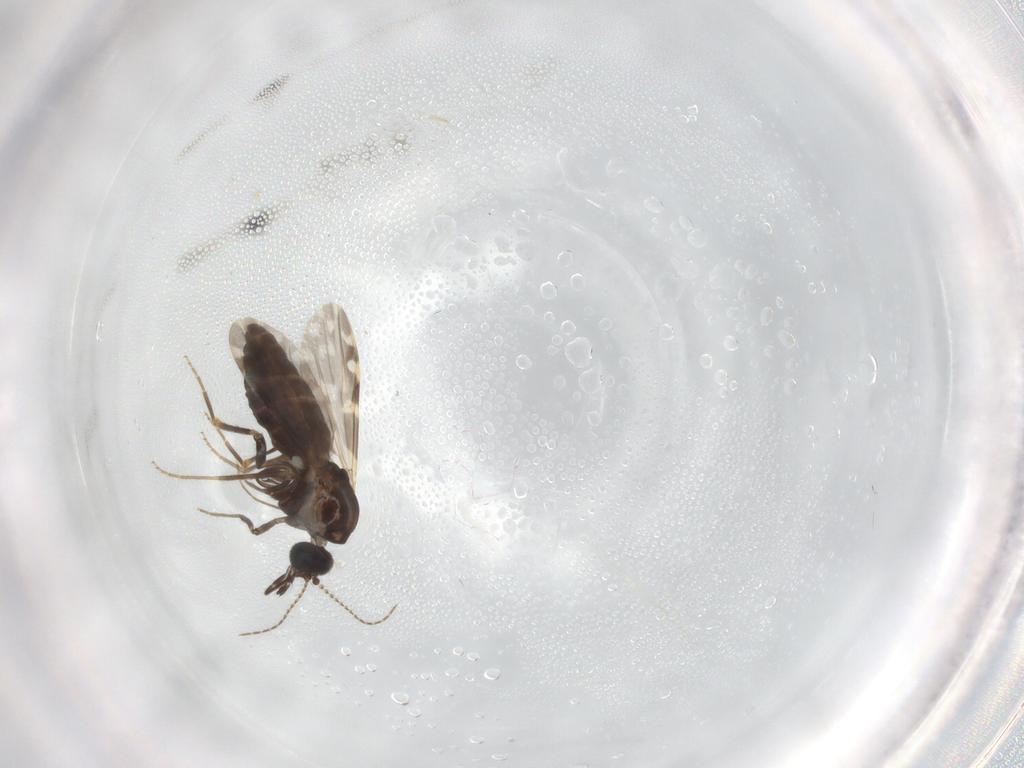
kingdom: Animalia
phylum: Arthropoda
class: Insecta
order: Diptera
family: Ceratopogonidae
